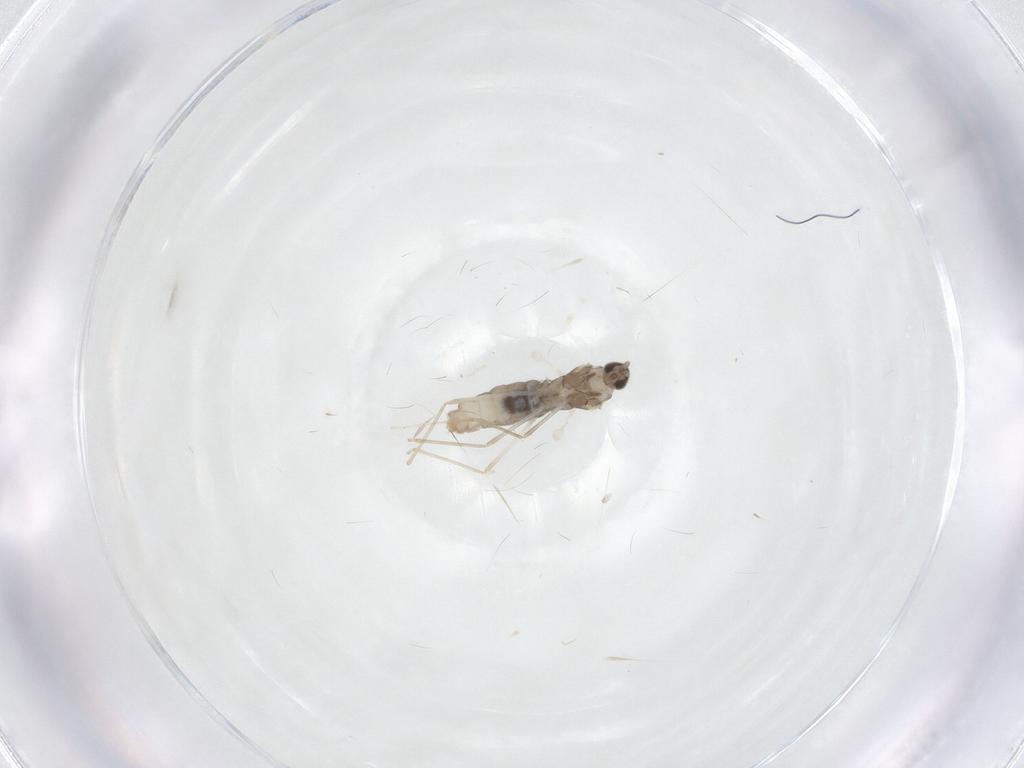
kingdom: Animalia
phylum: Arthropoda
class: Insecta
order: Diptera
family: Cecidomyiidae
